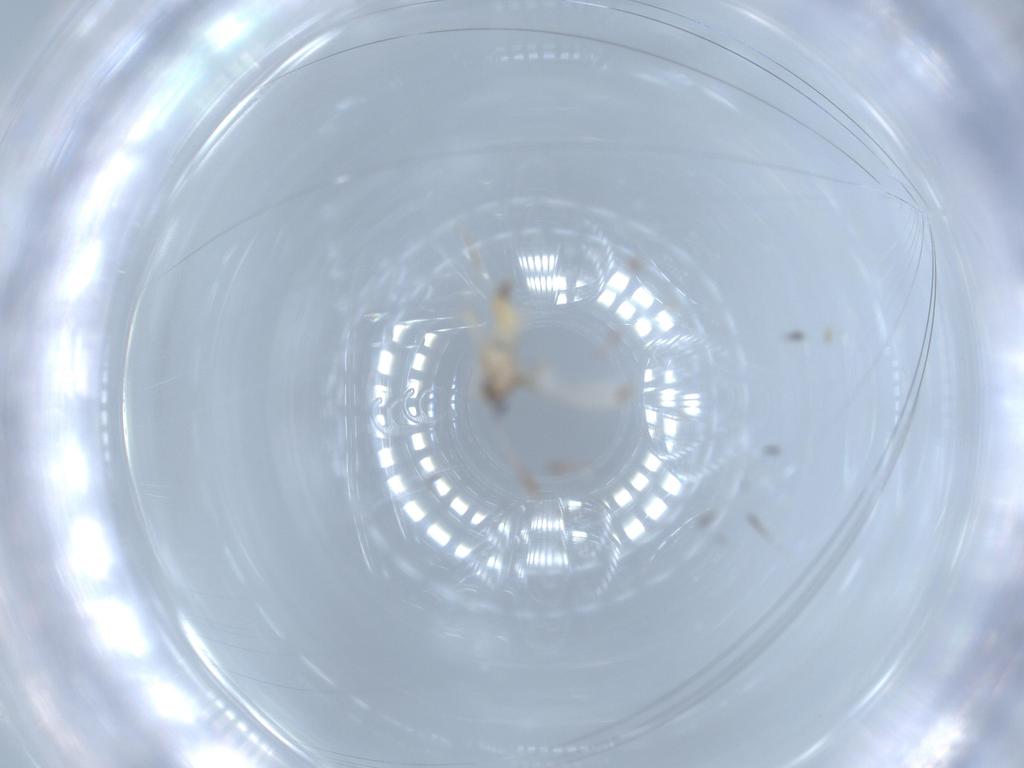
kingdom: Animalia
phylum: Arthropoda
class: Insecta
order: Diptera
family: Cecidomyiidae
